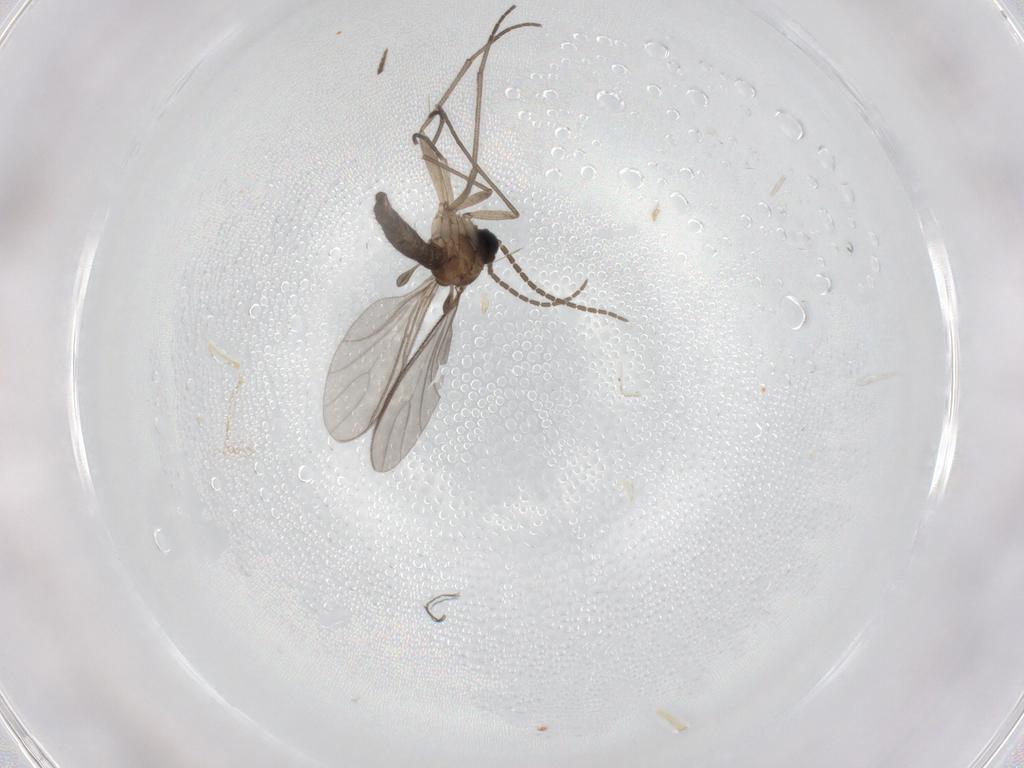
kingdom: Animalia
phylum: Arthropoda
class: Insecta
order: Diptera
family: Sciaridae
